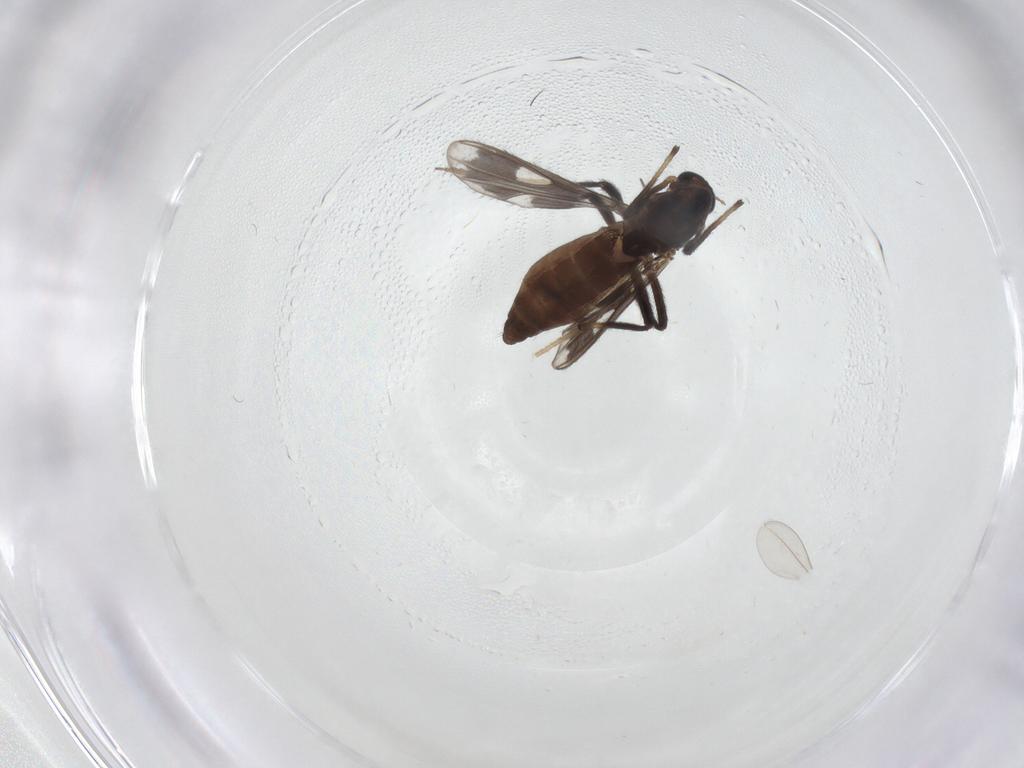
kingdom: Animalia
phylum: Arthropoda
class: Insecta
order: Diptera
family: Chironomidae
